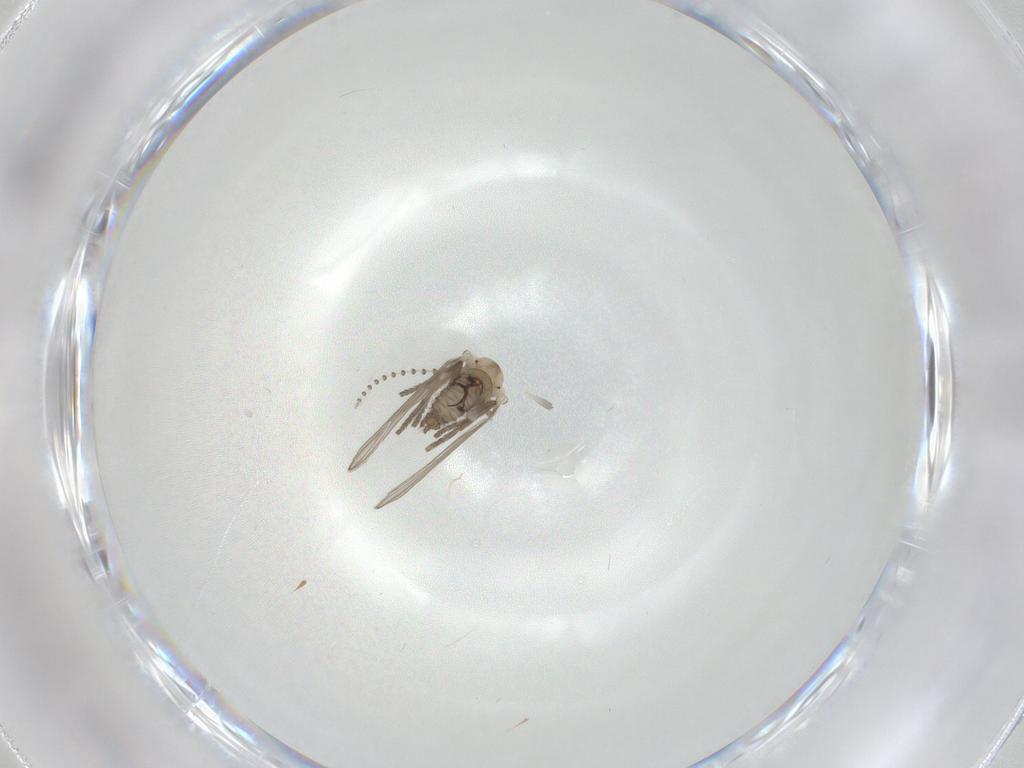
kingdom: Animalia
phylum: Arthropoda
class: Insecta
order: Diptera
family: Psychodidae
